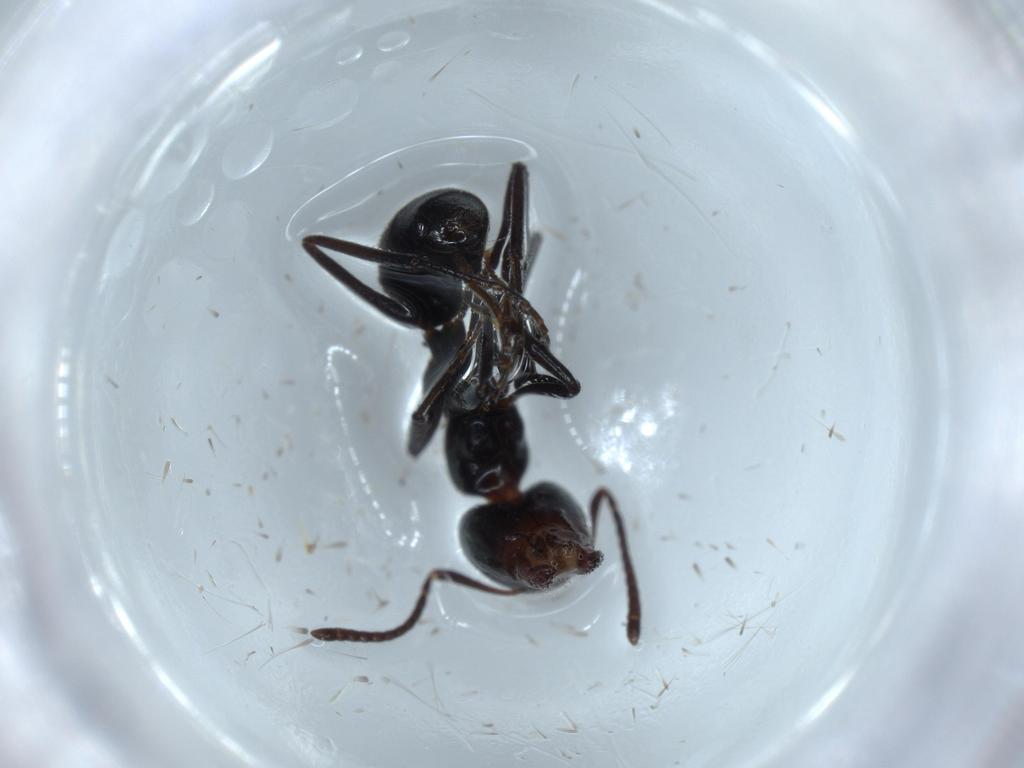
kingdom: Animalia
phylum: Arthropoda
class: Insecta
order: Hymenoptera
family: Formicidae
